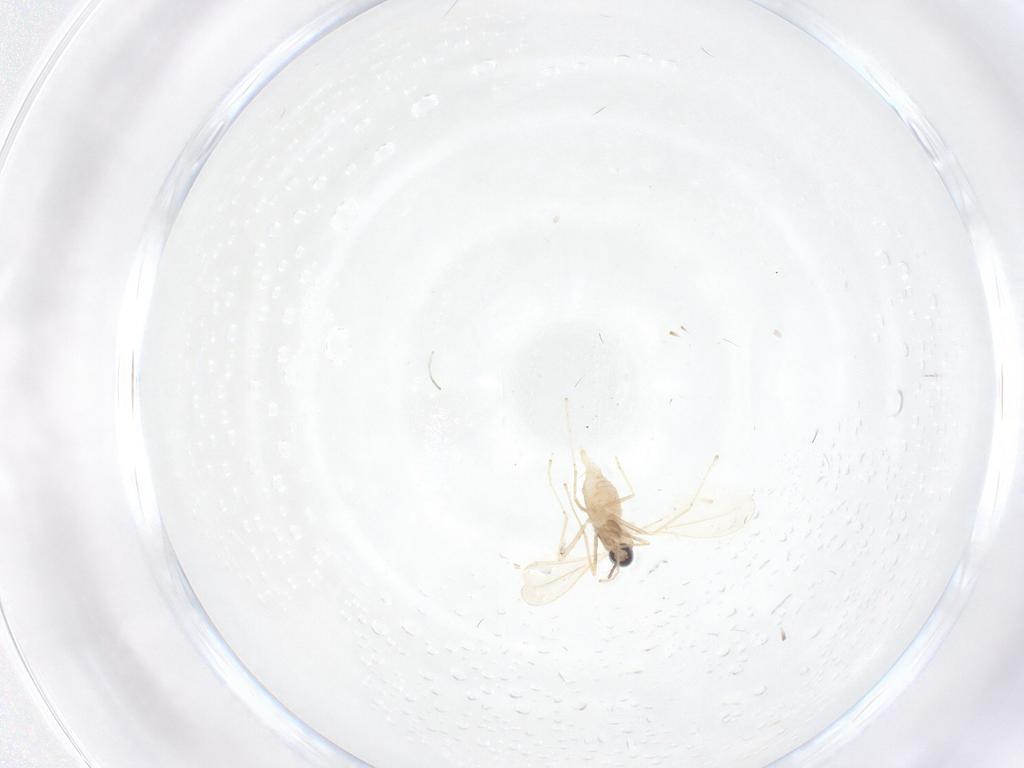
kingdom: Animalia
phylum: Arthropoda
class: Insecta
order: Diptera
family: Cecidomyiidae
